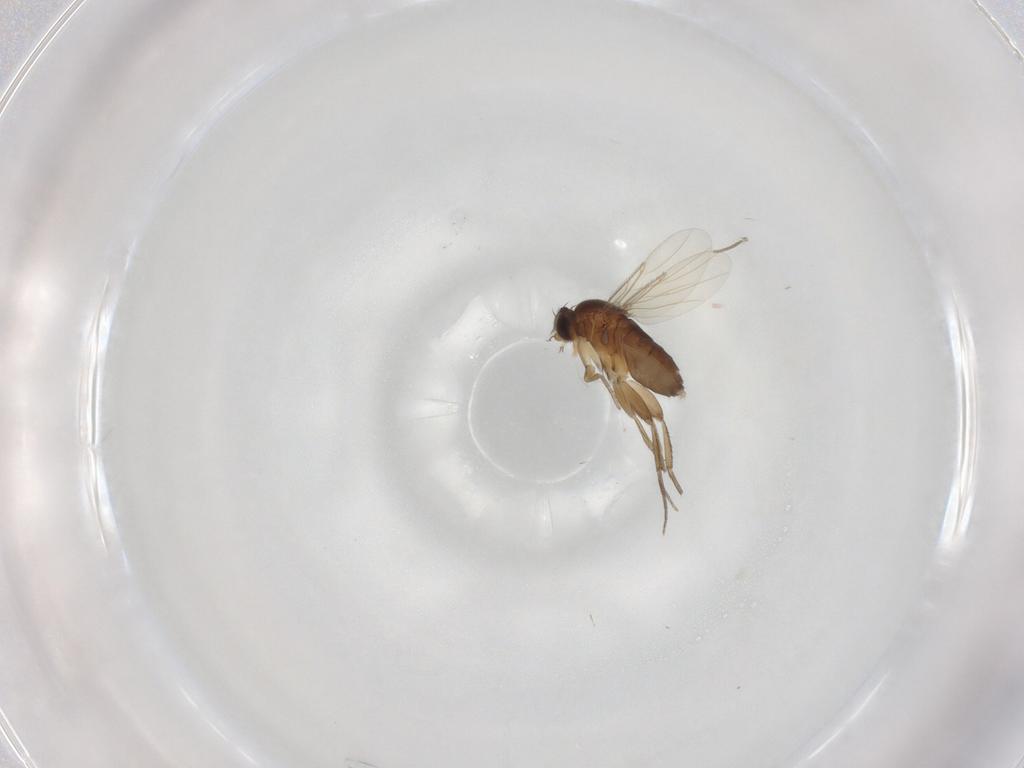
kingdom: Animalia
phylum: Arthropoda
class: Insecta
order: Diptera
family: Phoridae
